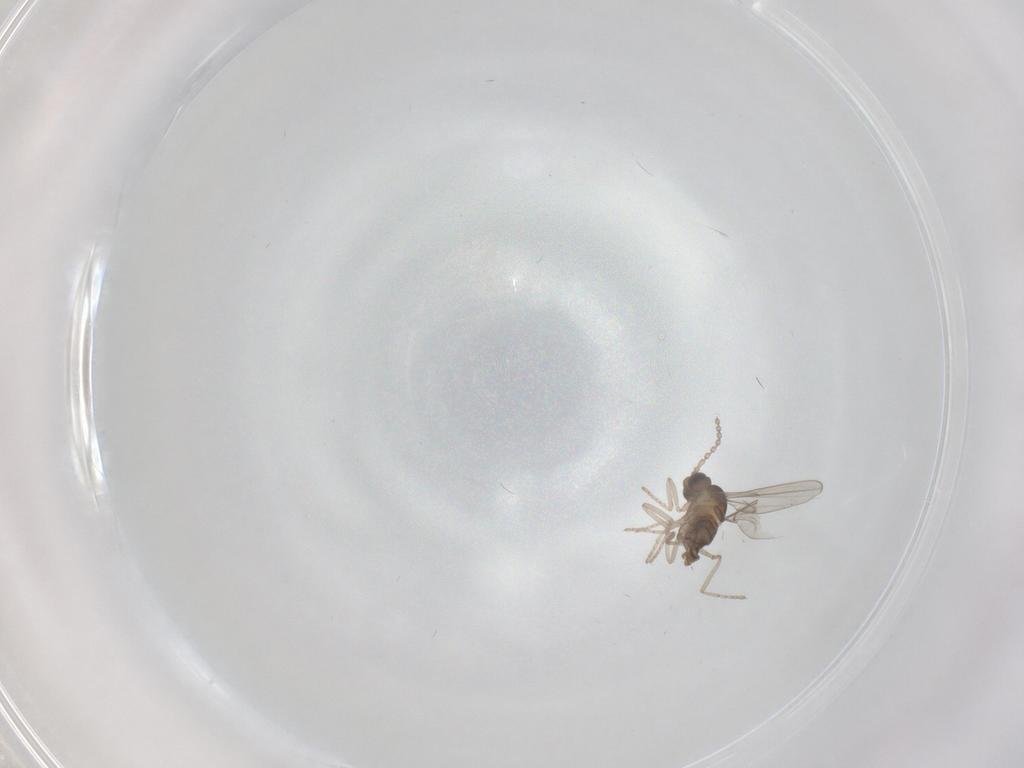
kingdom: Animalia
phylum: Arthropoda
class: Insecta
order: Diptera
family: Cecidomyiidae
